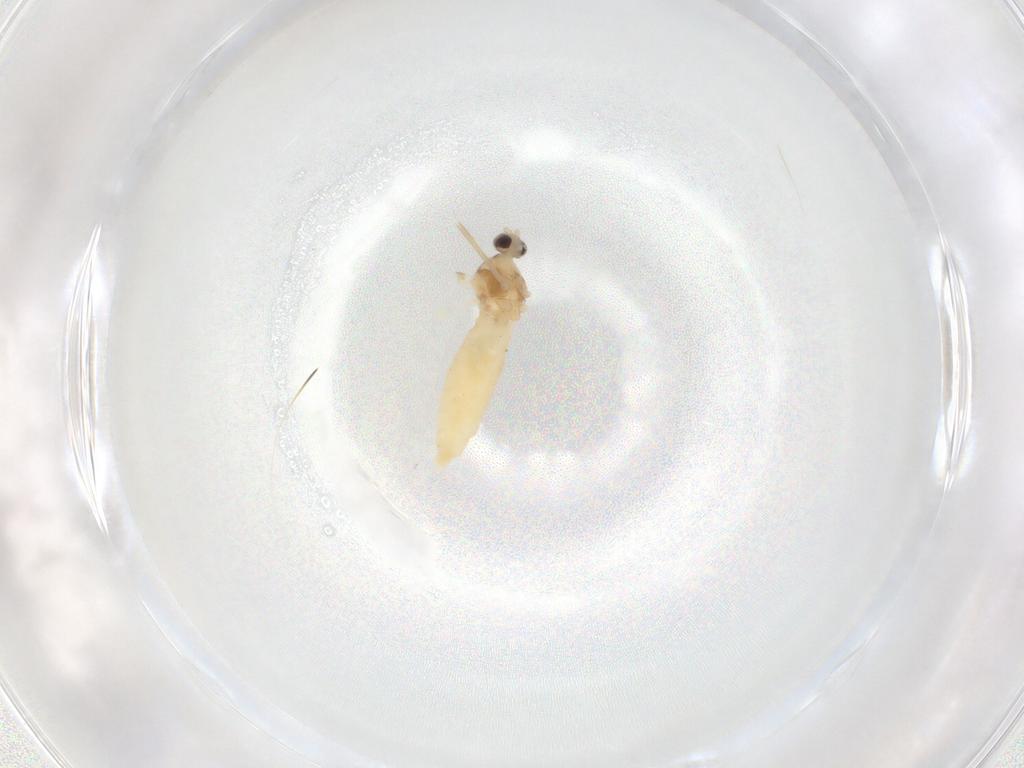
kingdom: Animalia
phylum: Arthropoda
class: Insecta
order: Diptera
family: Cecidomyiidae
